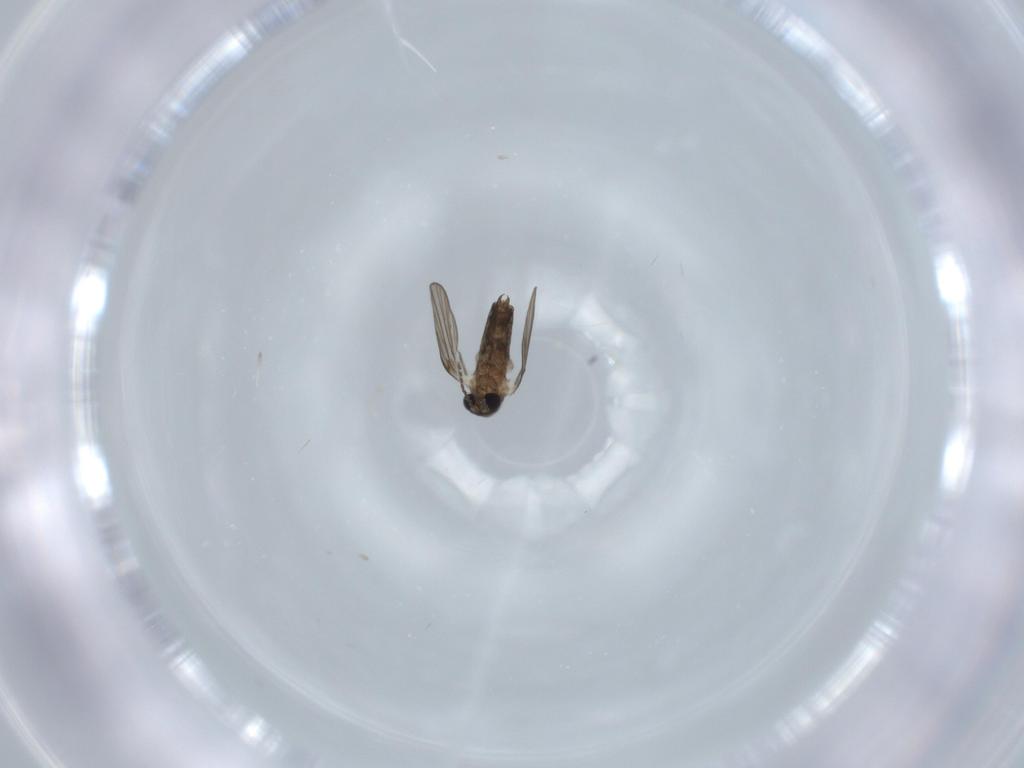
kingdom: Animalia
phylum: Arthropoda
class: Insecta
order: Diptera
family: Psychodidae
